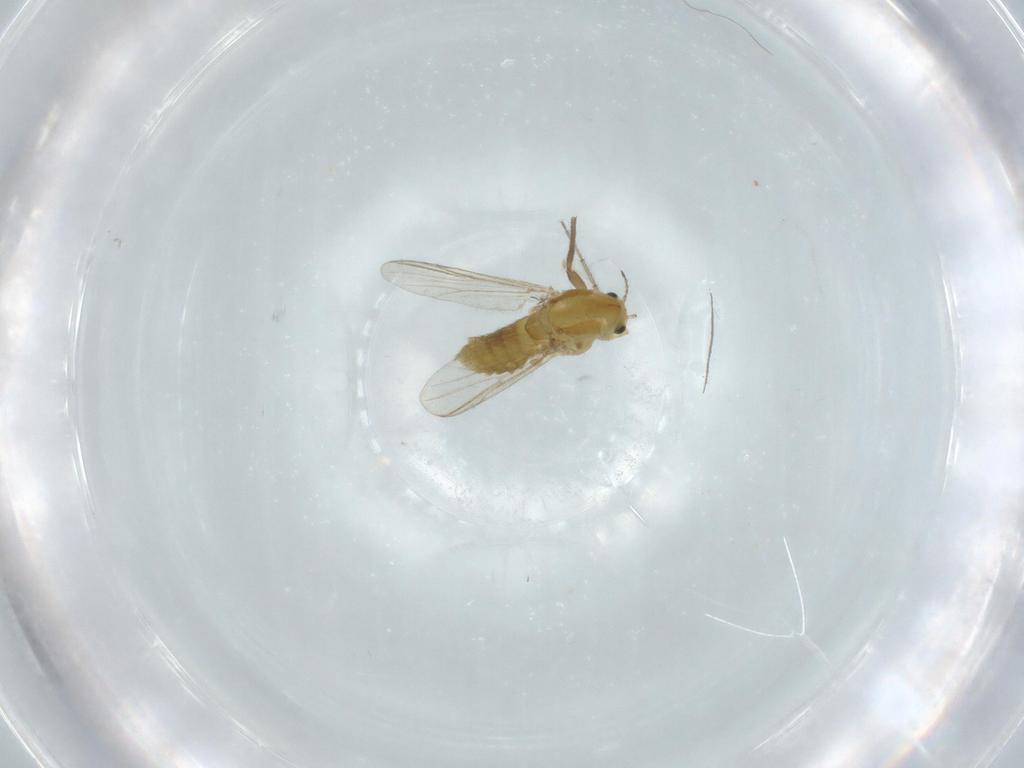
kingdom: Animalia
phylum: Arthropoda
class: Insecta
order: Diptera
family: Chironomidae
